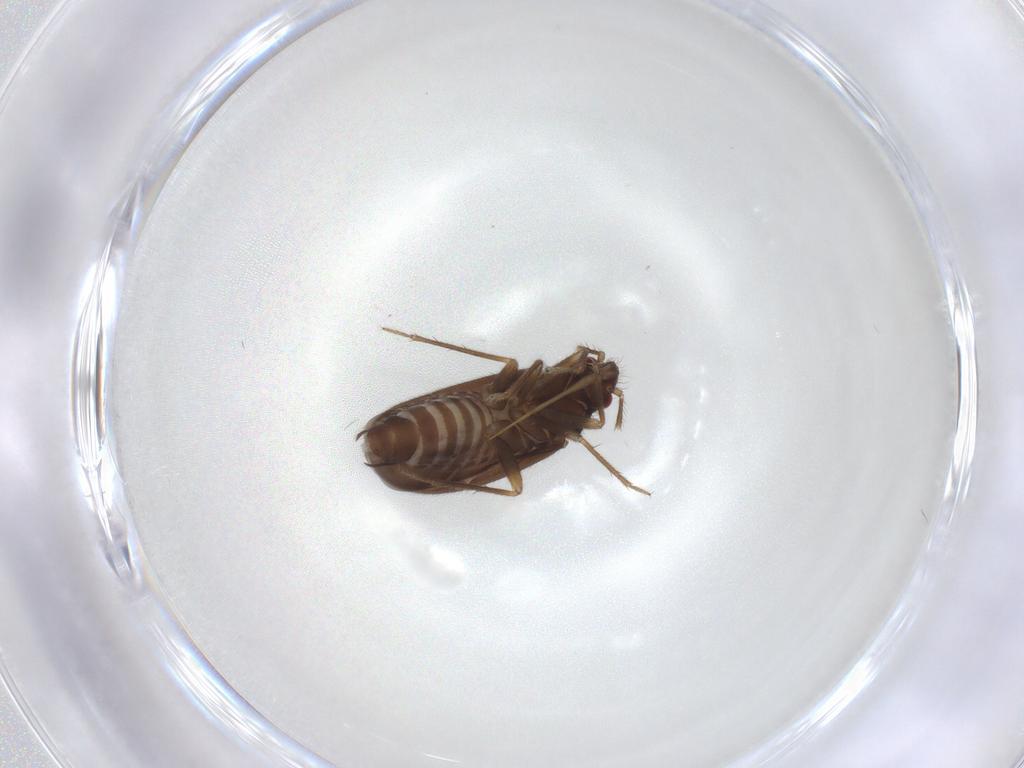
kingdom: Animalia
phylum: Arthropoda
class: Insecta
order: Hemiptera
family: Ceratocombidae
